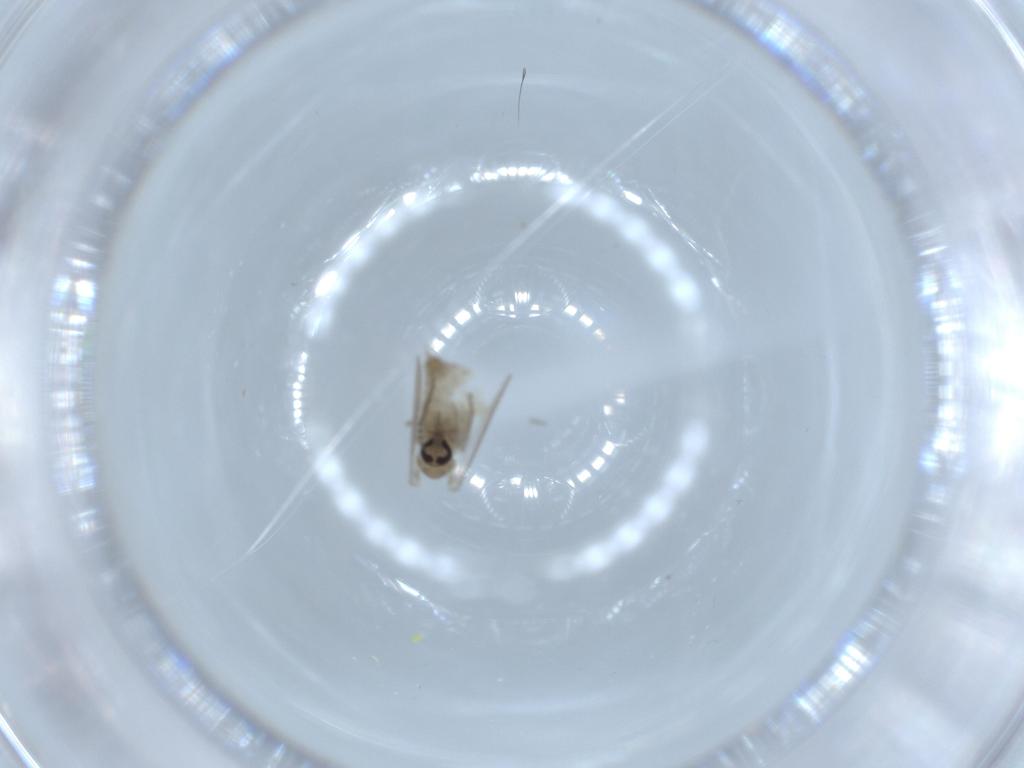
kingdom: Animalia
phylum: Arthropoda
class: Insecta
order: Diptera
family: Psychodidae
